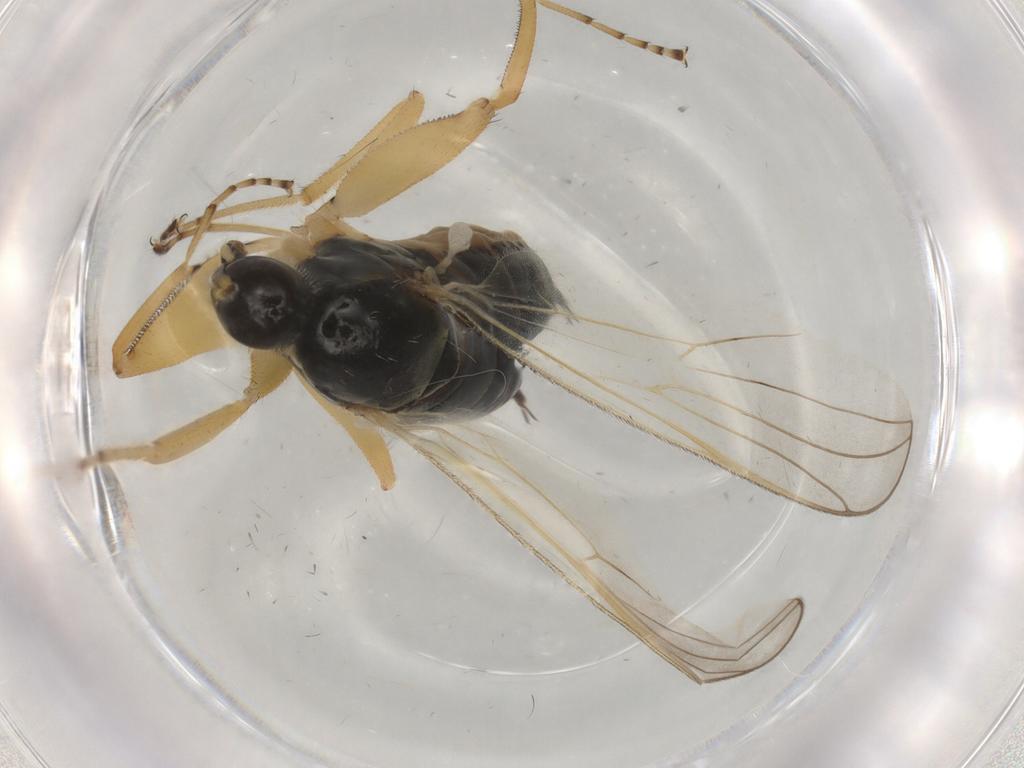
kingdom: Animalia
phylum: Arthropoda
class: Insecta
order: Diptera
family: Hybotidae
